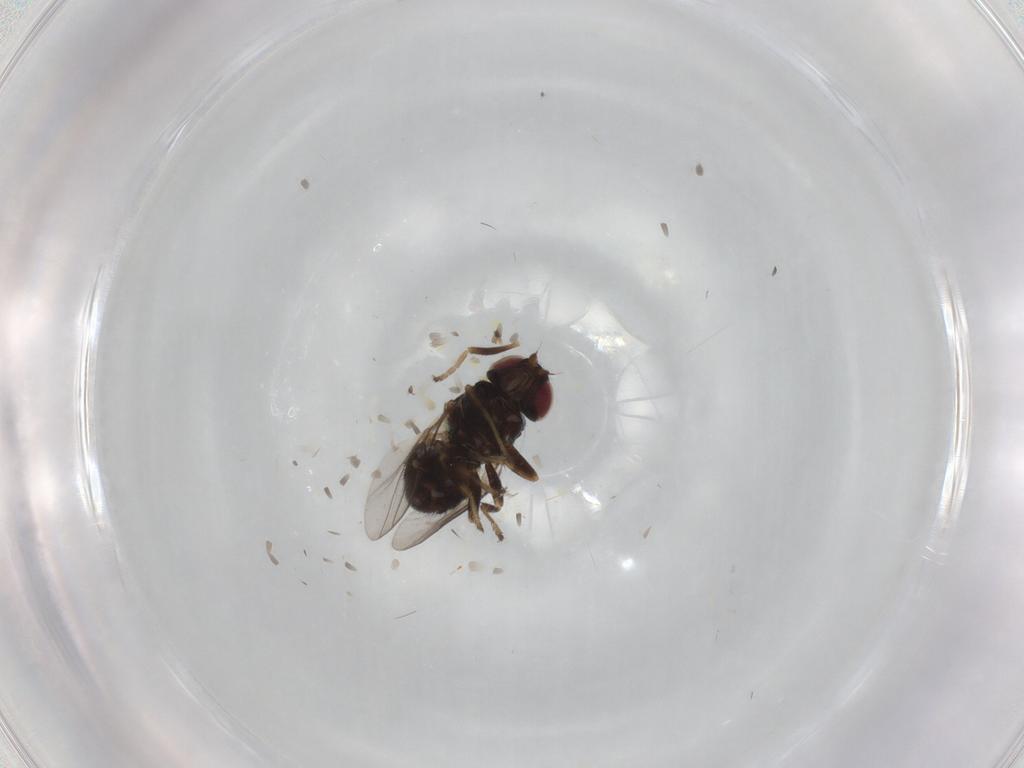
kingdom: Animalia
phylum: Arthropoda
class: Insecta
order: Diptera
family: Chloropidae
